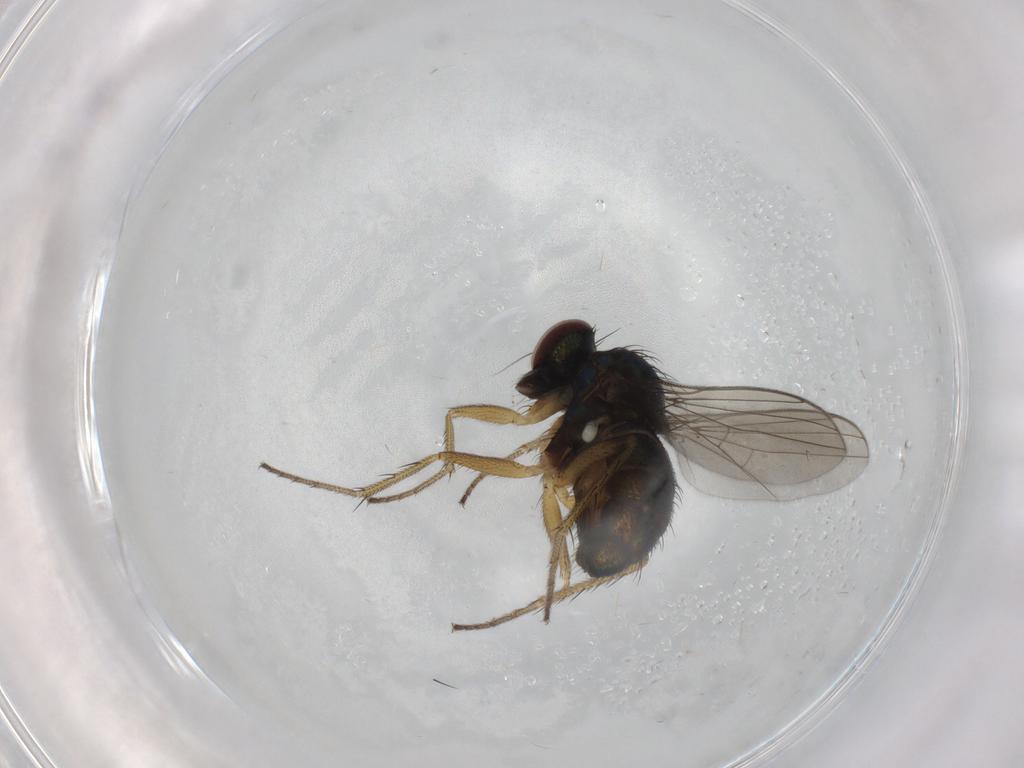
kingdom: Animalia
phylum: Arthropoda
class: Insecta
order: Diptera
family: Dolichopodidae
